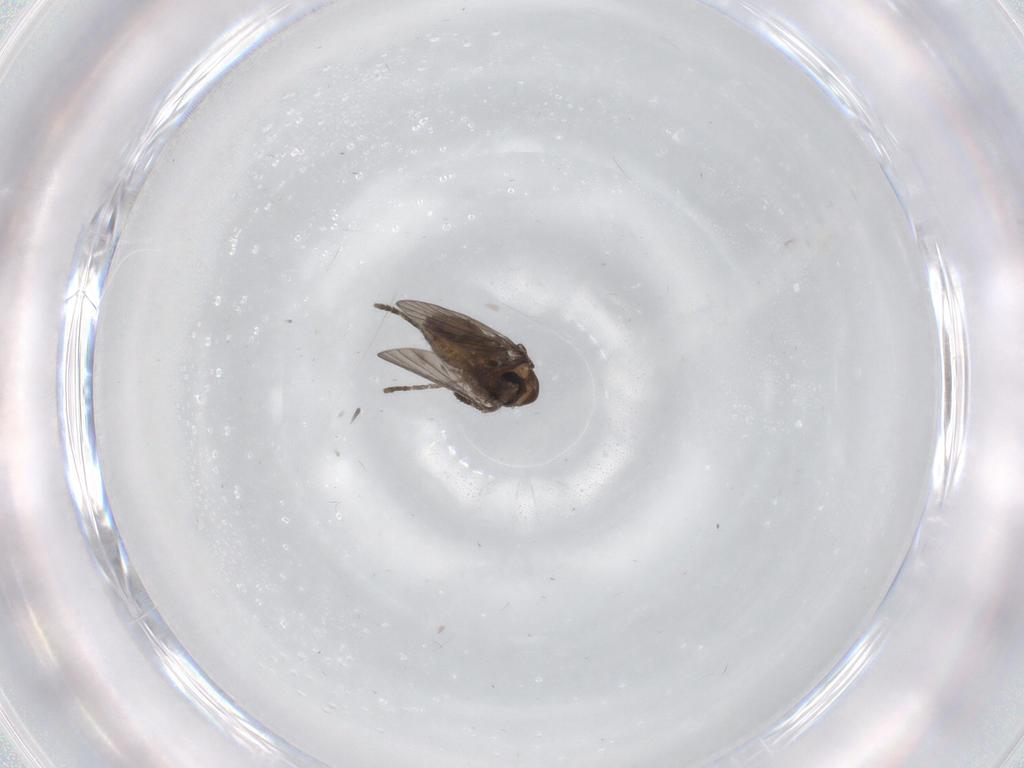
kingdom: Animalia
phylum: Arthropoda
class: Insecta
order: Diptera
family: Psychodidae
